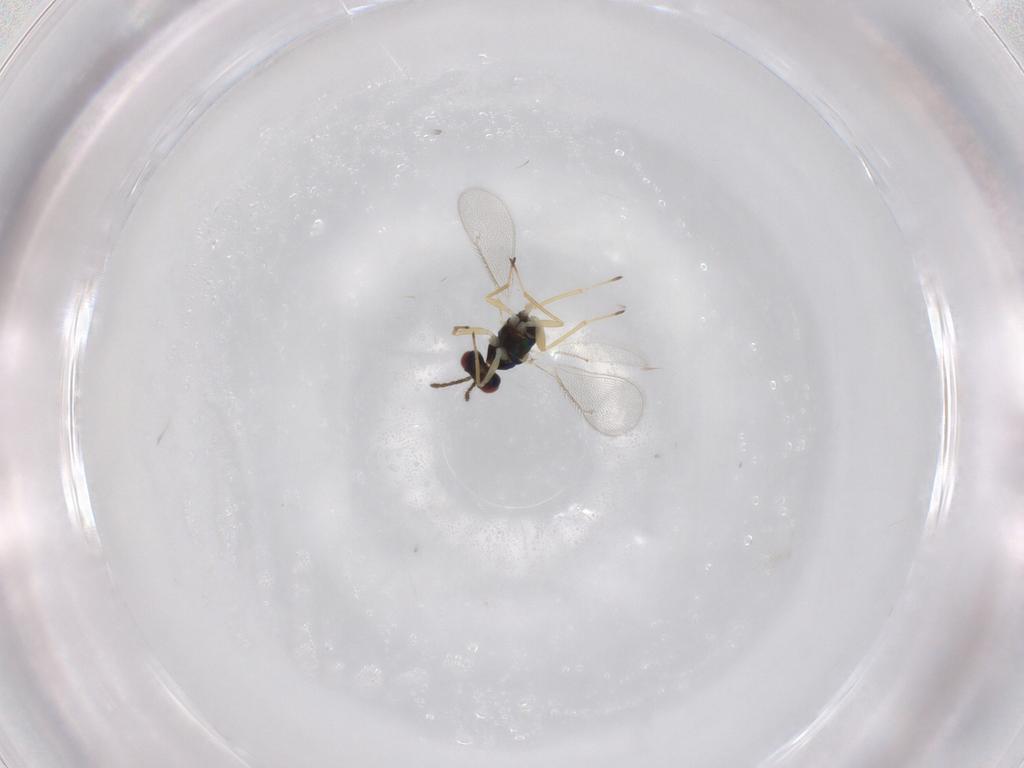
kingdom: Animalia
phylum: Arthropoda
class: Insecta
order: Hymenoptera
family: Eulophidae
